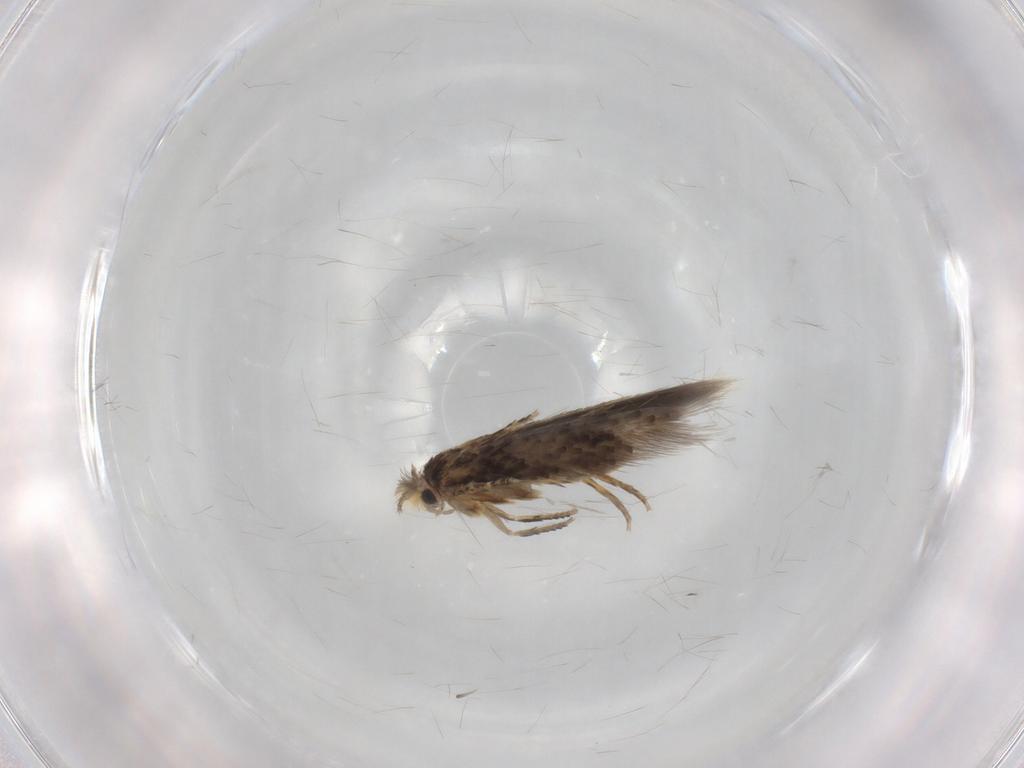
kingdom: Animalia
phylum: Arthropoda
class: Insecta
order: Lepidoptera
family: Nepticulidae
